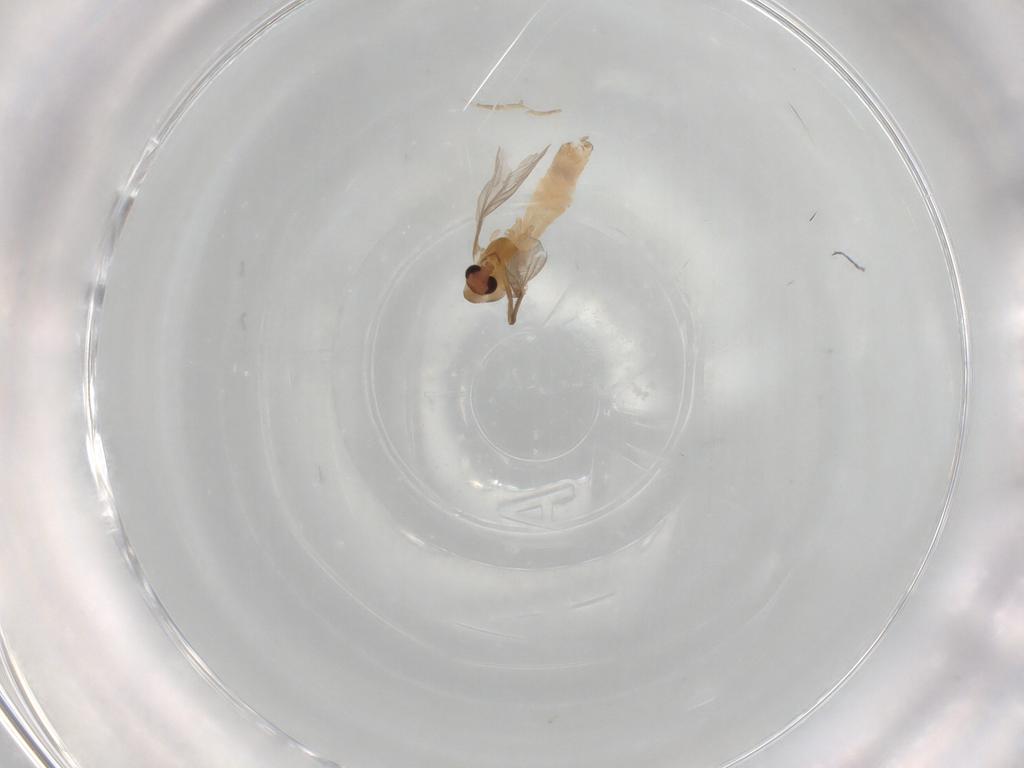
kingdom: Animalia
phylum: Arthropoda
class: Insecta
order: Diptera
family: Chironomidae
